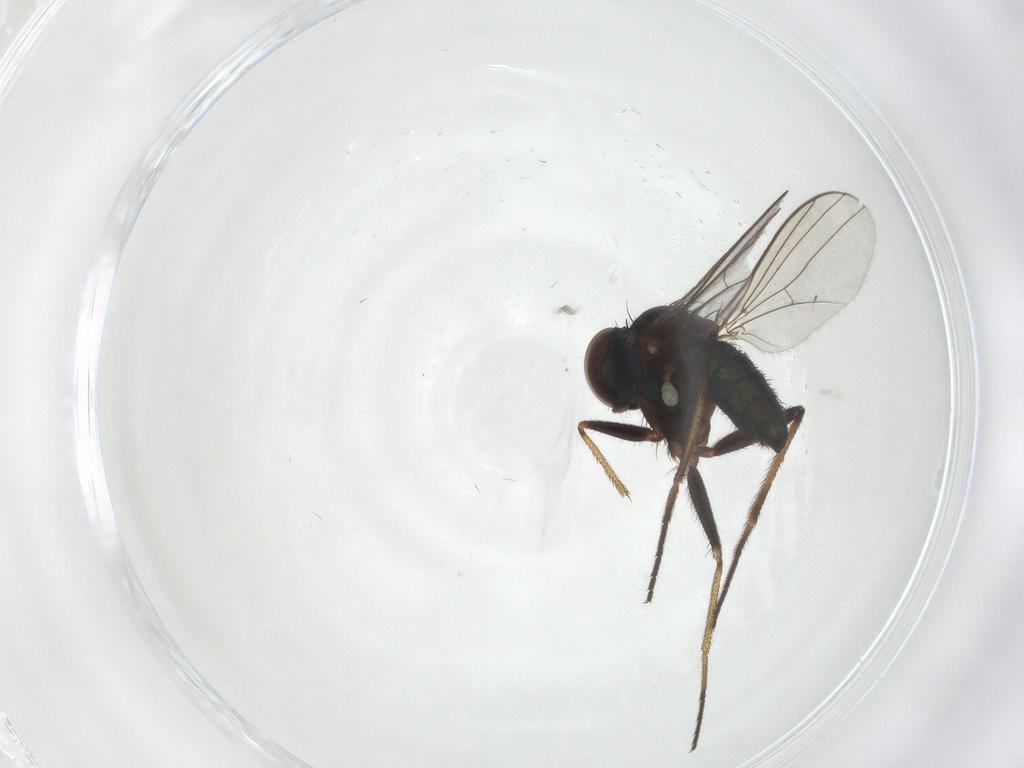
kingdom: Animalia
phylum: Arthropoda
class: Insecta
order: Diptera
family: Dolichopodidae
